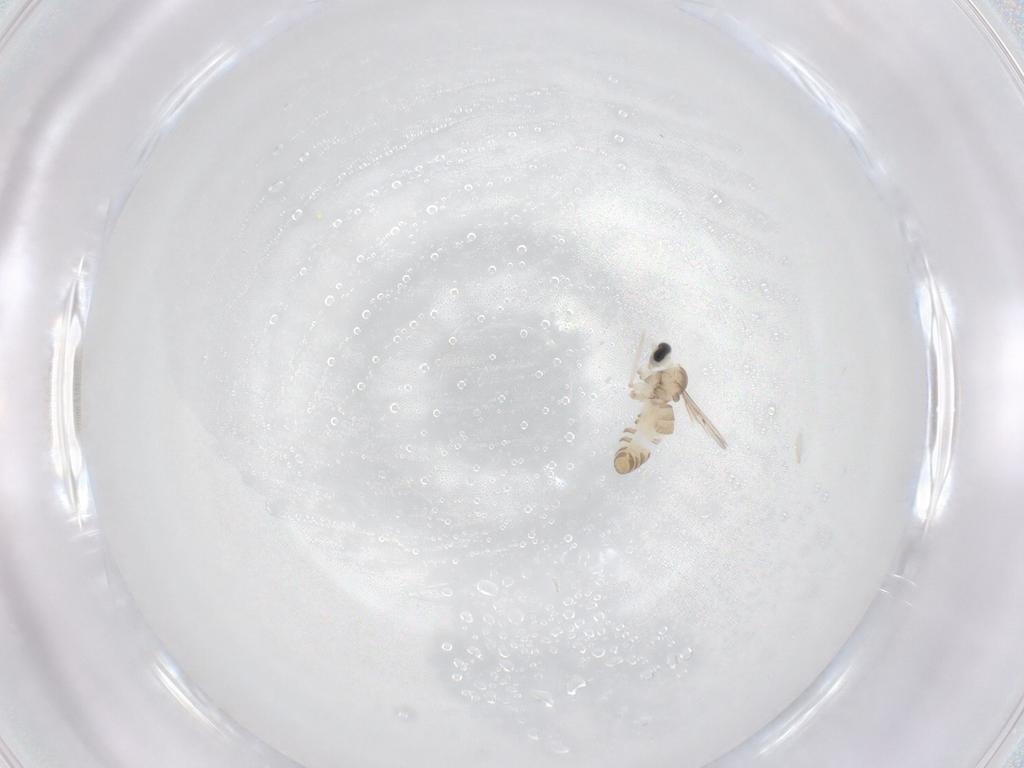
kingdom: Animalia
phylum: Arthropoda
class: Insecta
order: Diptera
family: Cecidomyiidae
